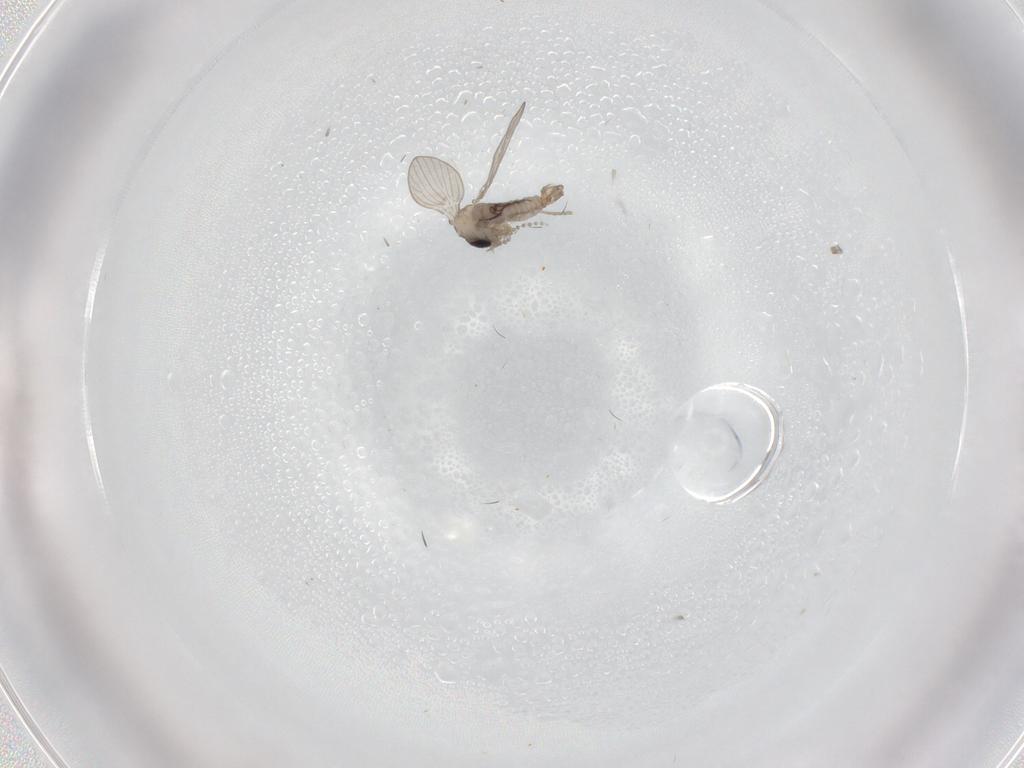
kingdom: Animalia
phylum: Arthropoda
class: Insecta
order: Diptera
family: Psychodidae
